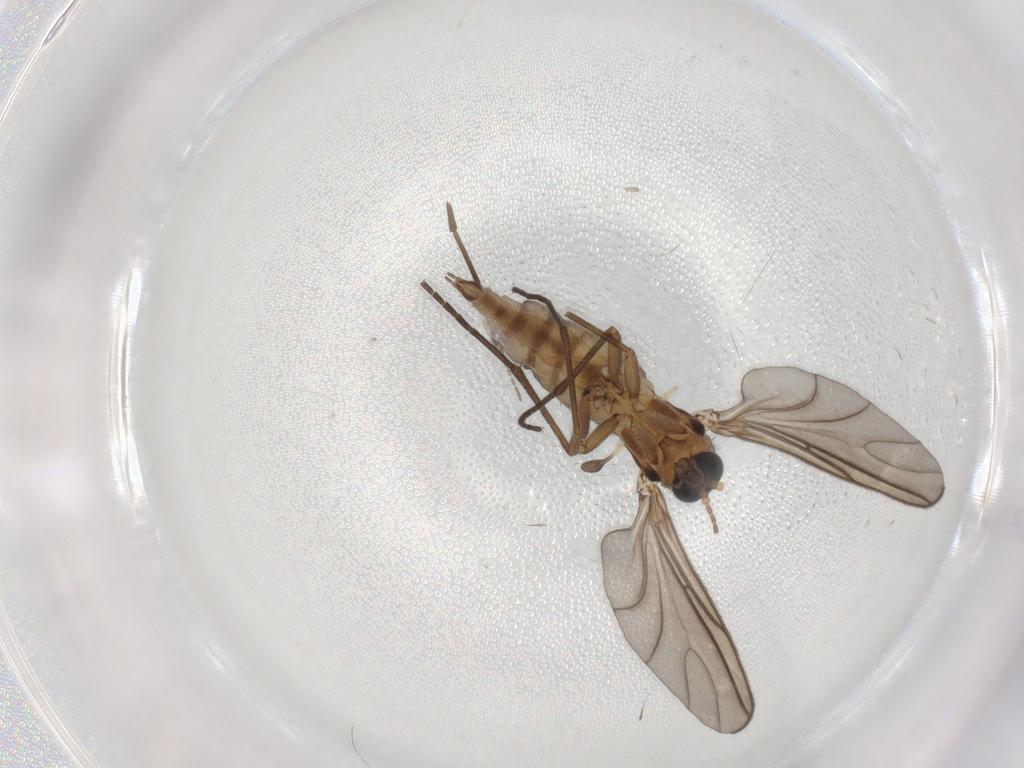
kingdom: Animalia
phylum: Arthropoda
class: Insecta
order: Diptera
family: Sciaridae
